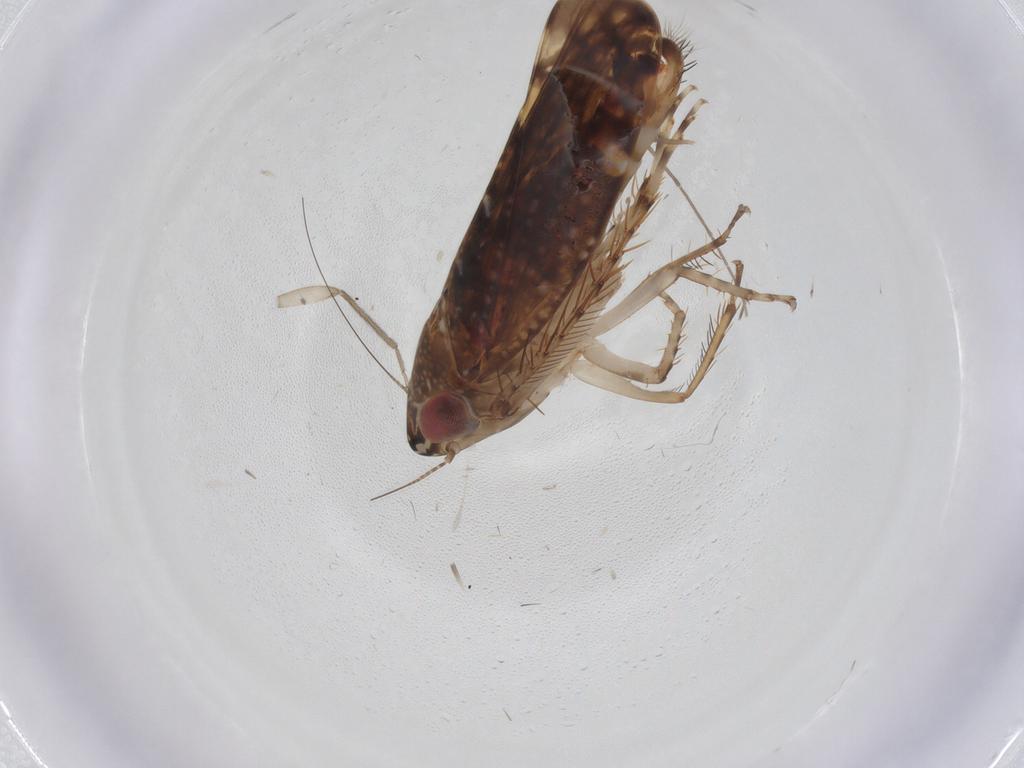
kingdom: Animalia
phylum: Arthropoda
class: Insecta
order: Hemiptera
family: Cicadellidae
